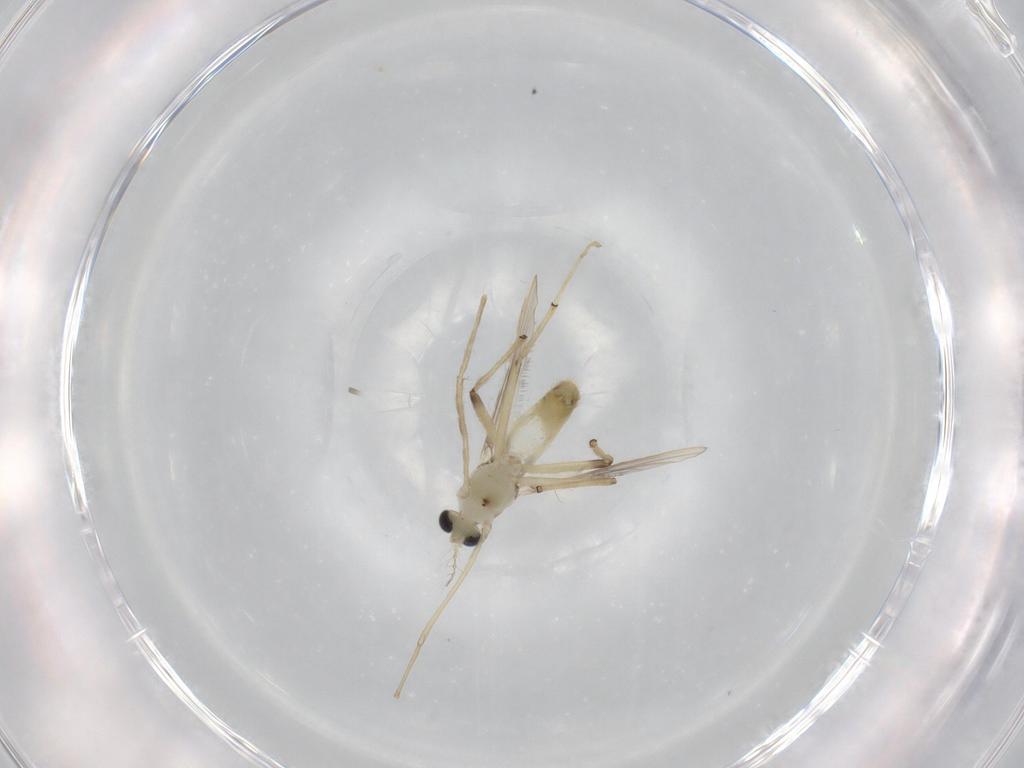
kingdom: Animalia
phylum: Arthropoda
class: Insecta
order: Diptera
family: Chironomidae
